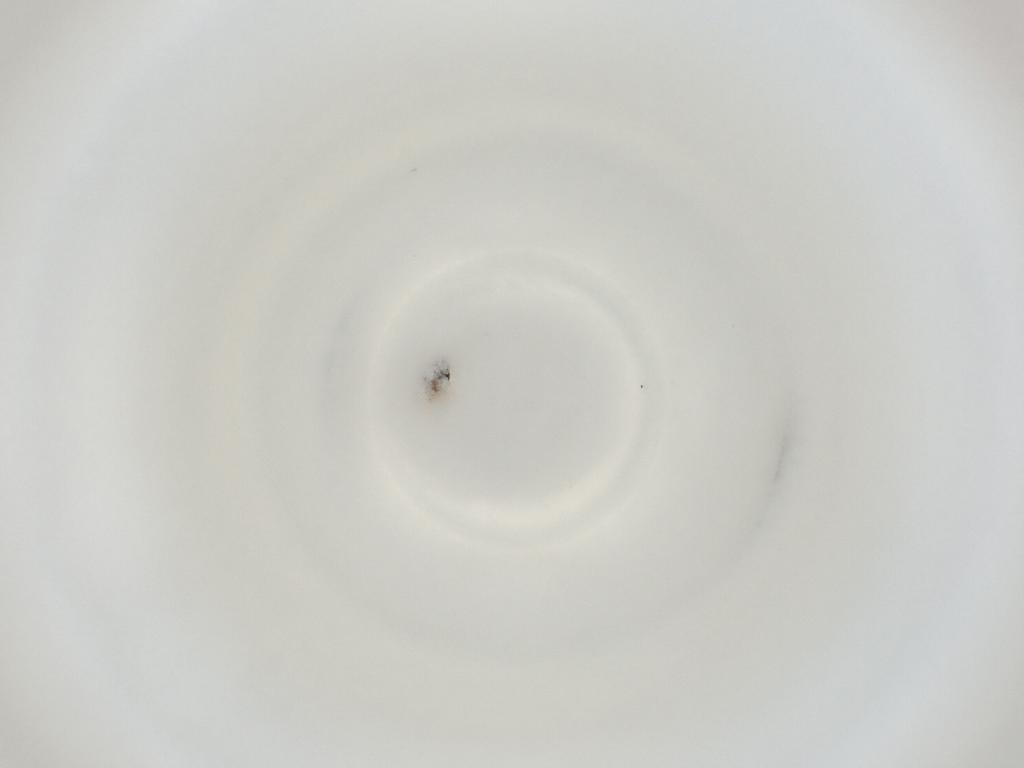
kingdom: Animalia
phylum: Arthropoda
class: Insecta
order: Diptera
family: Cecidomyiidae
